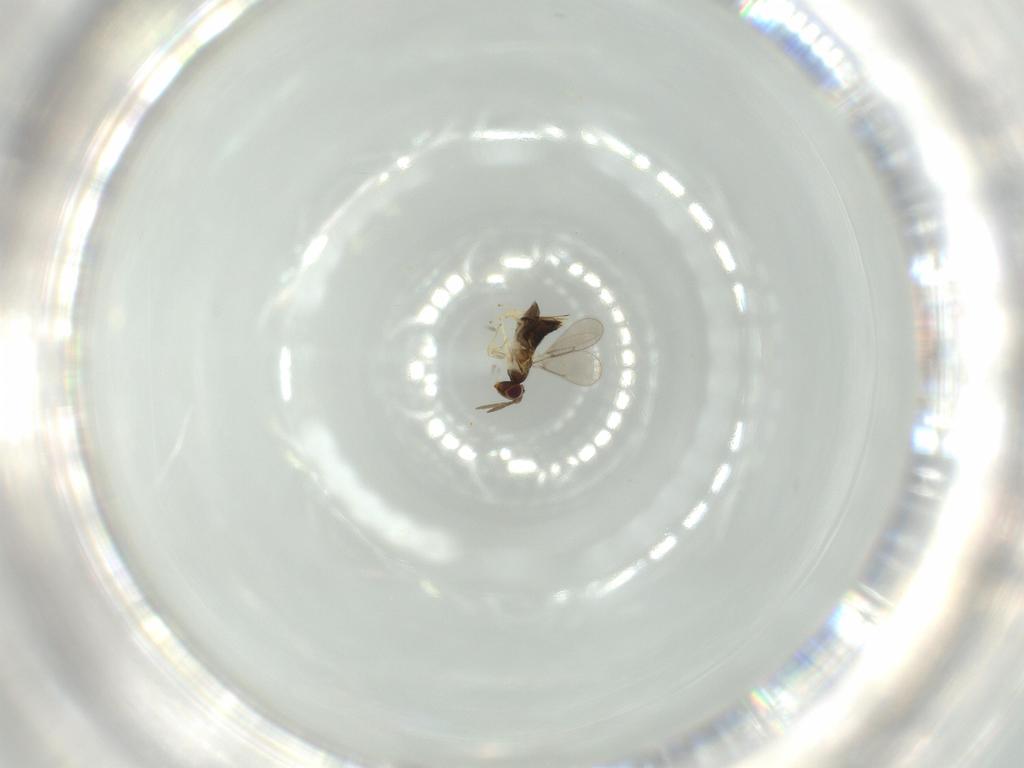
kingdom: Animalia
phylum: Arthropoda
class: Insecta
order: Hymenoptera
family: Aphelinidae
